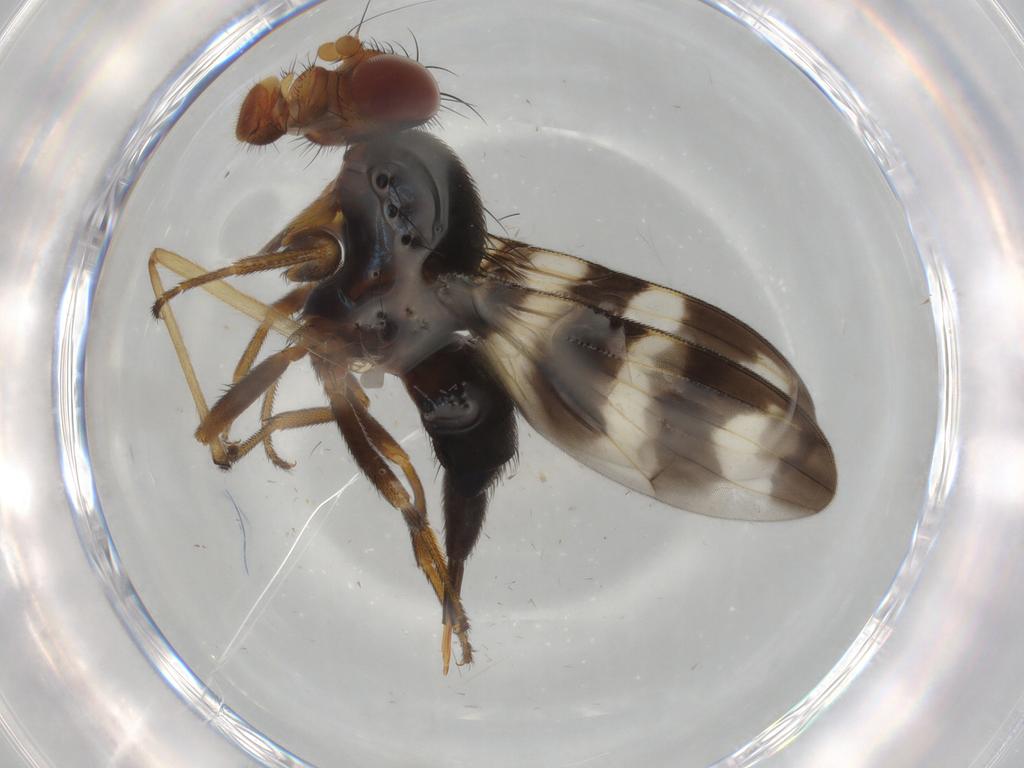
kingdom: Animalia
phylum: Arthropoda
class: Insecta
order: Diptera
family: Ulidiidae
